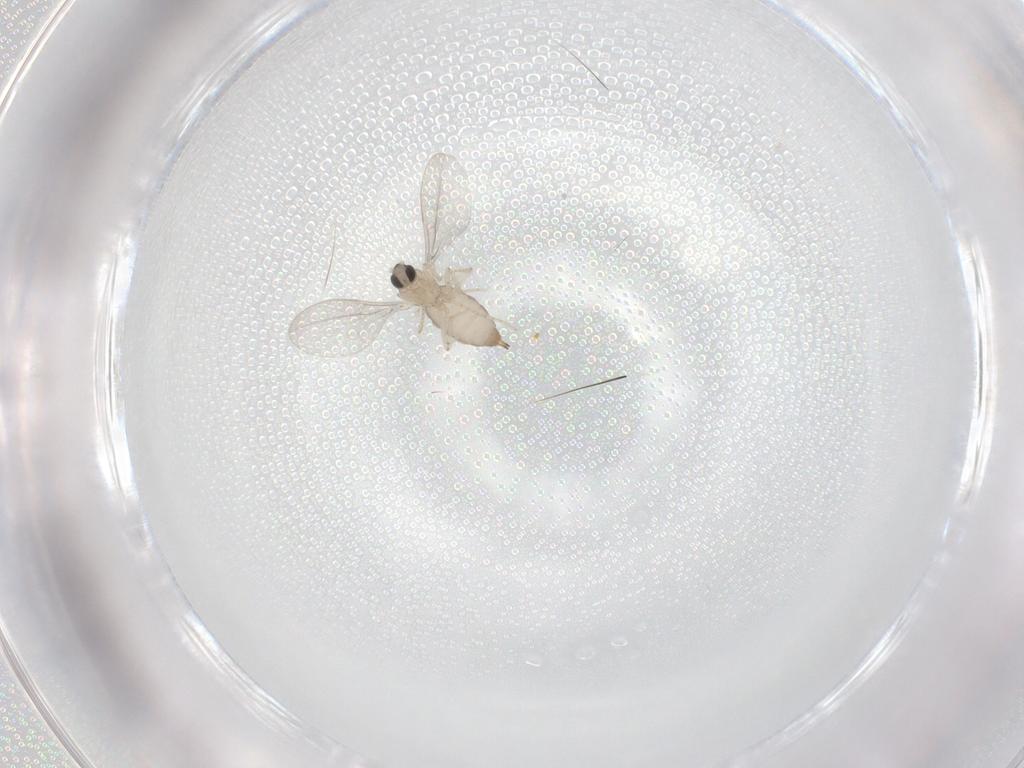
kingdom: Animalia
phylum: Arthropoda
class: Insecta
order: Diptera
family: Cecidomyiidae
